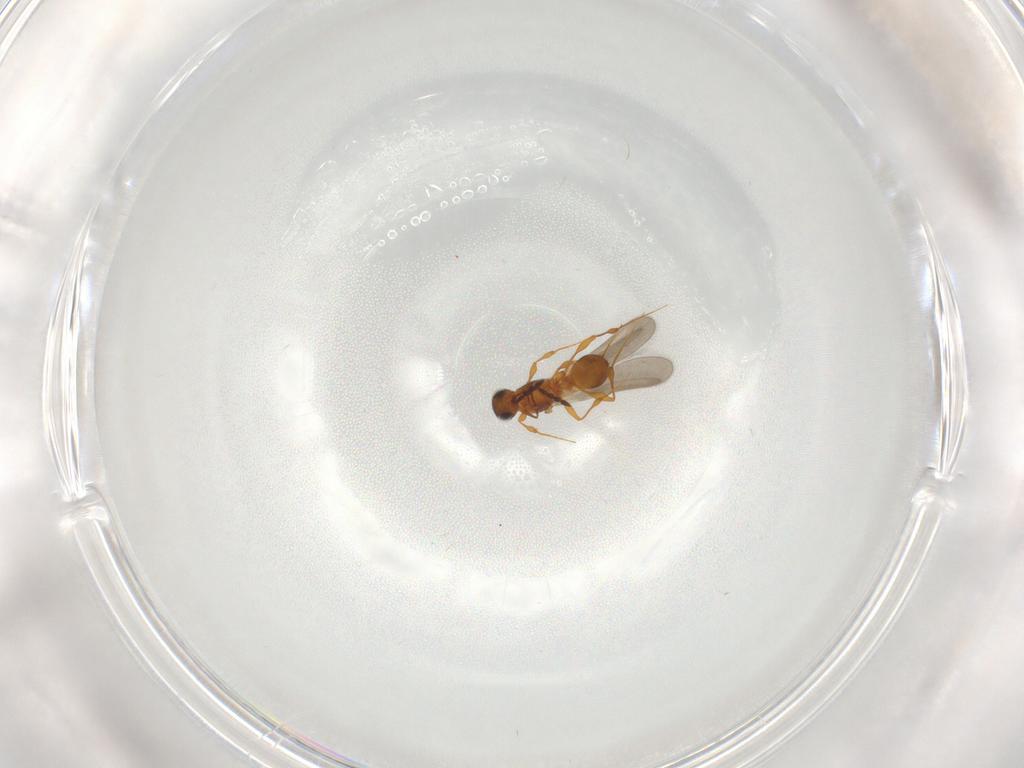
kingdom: Animalia
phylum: Arthropoda
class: Insecta
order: Hymenoptera
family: Platygastridae
